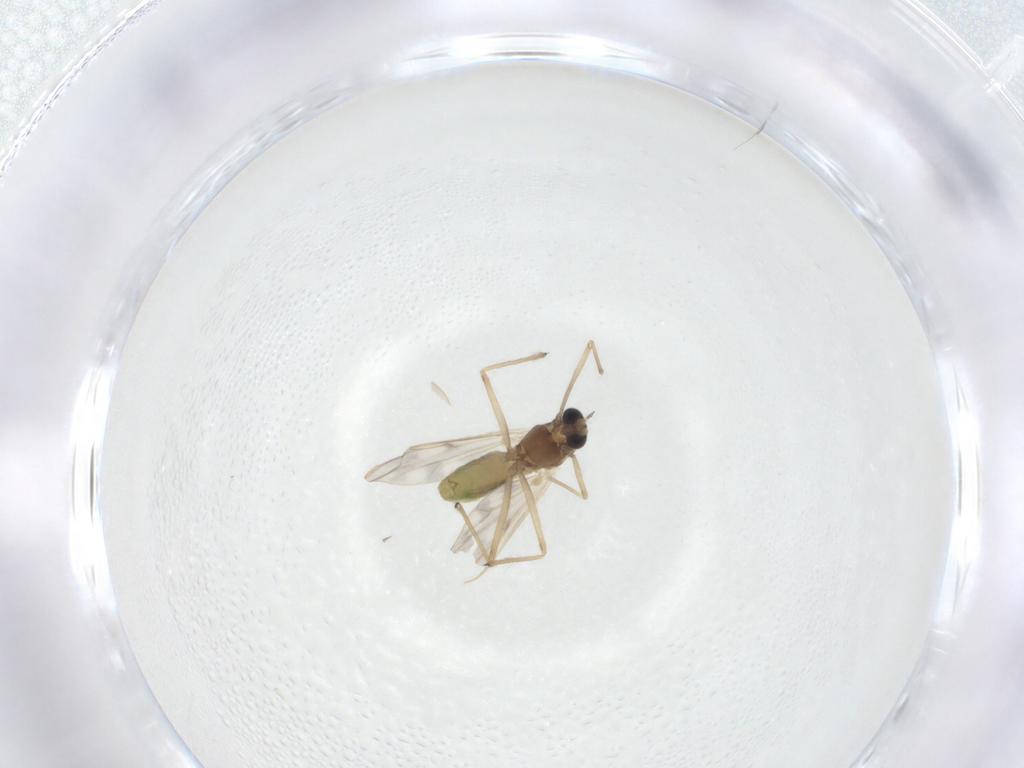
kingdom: Animalia
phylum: Arthropoda
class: Insecta
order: Diptera
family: Chironomidae
